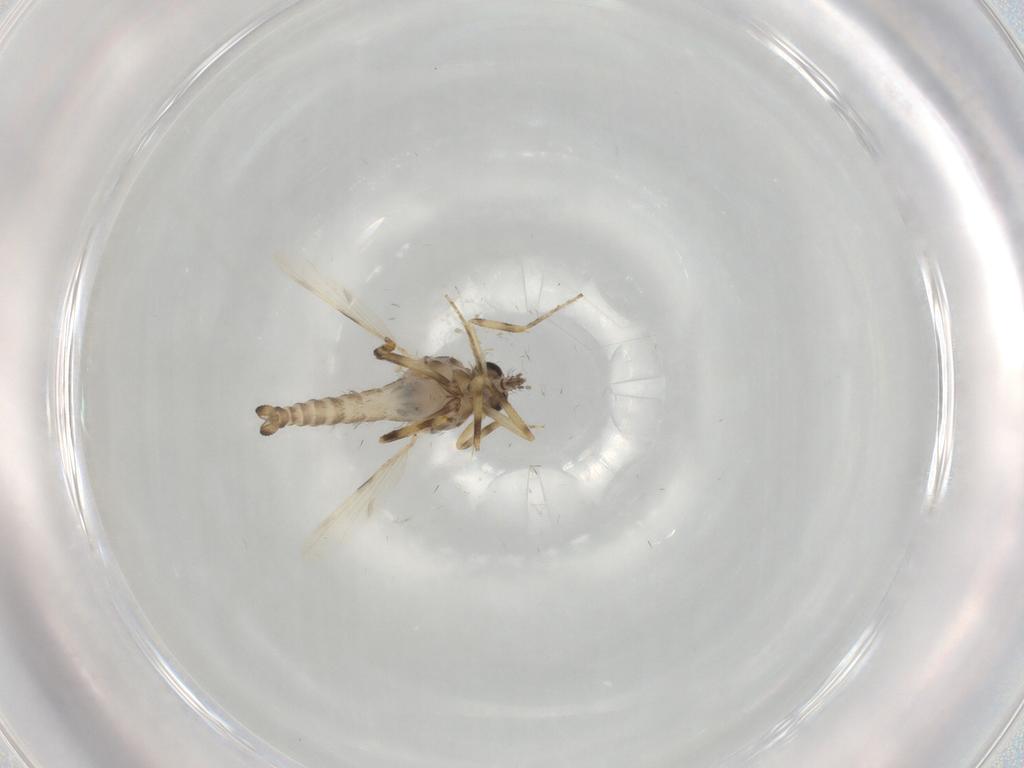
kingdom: Animalia
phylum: Arthropoda
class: Insecta
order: Diptera
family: Ceratopogonidae
